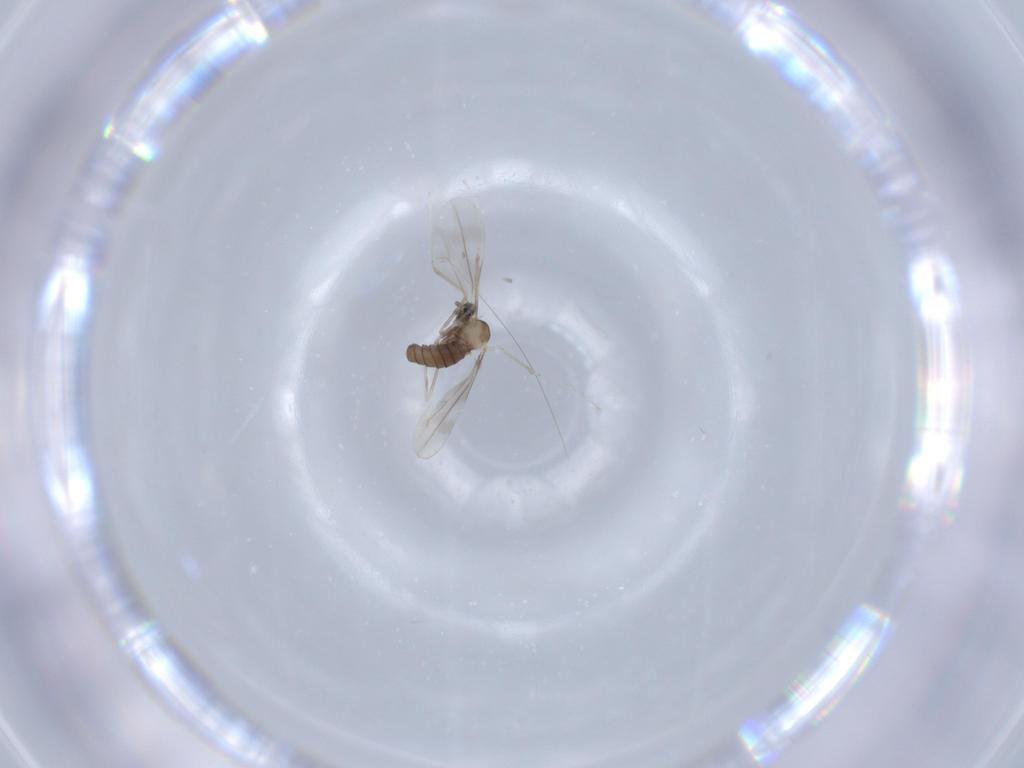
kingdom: Animalia
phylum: Arthropoda
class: Insecta
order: Diptera
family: Cecidomyiidae
